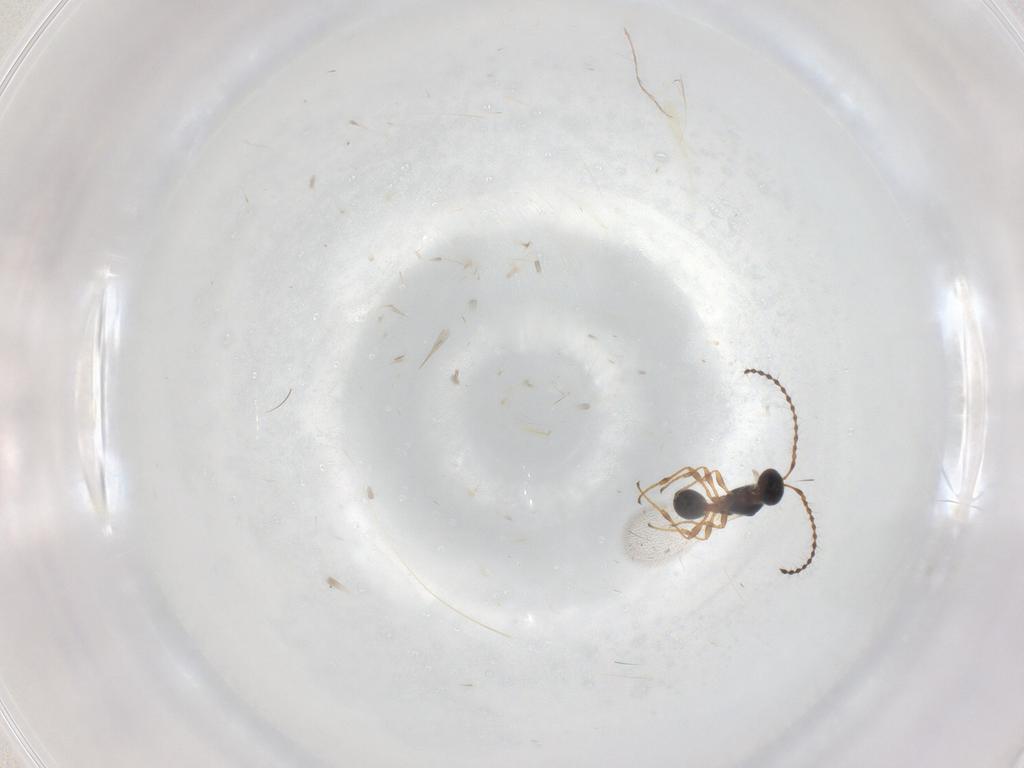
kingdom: Animalia
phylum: Arthropoda
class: Insecta
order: Hymenoptera
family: Diapriidae
